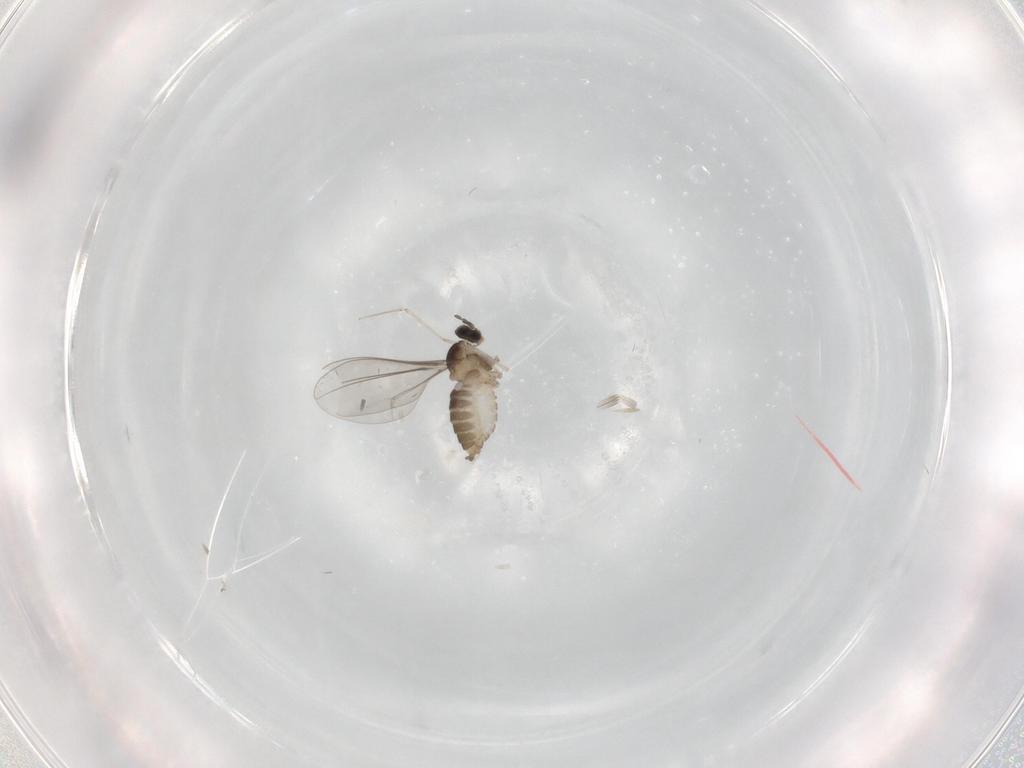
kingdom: Animalia
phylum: Arthropoda
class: Insecta
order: Diptera
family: Cecidomyiidae
